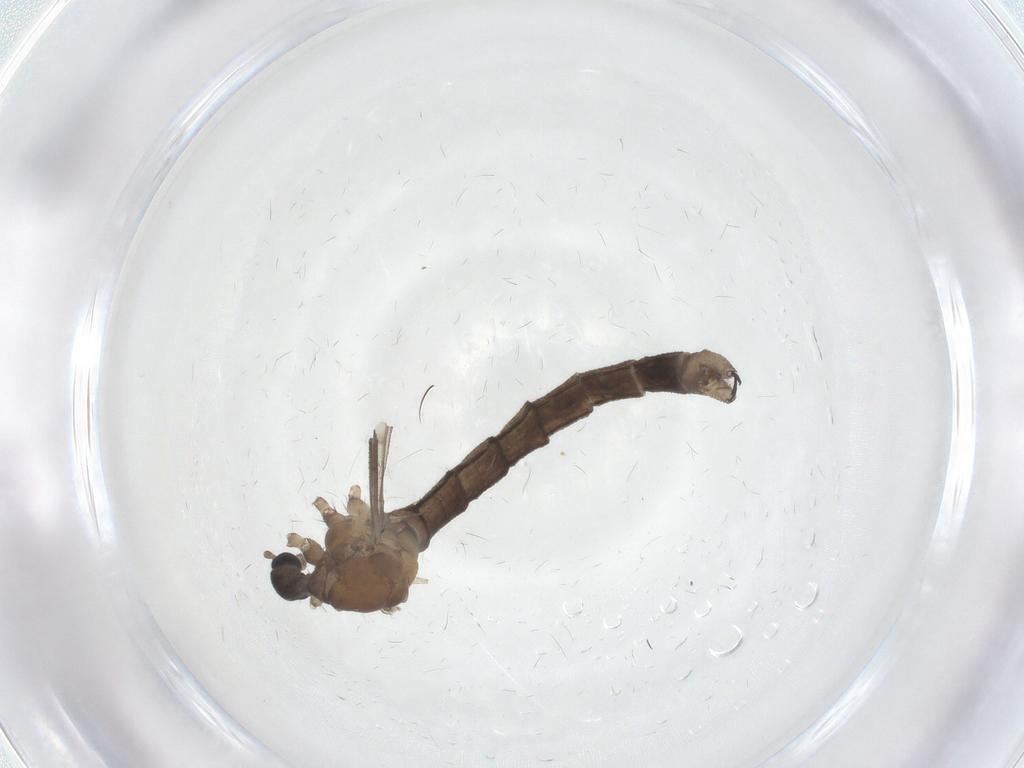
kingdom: Animalia
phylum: Arthropoda
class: Insecta
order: Diptera
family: Limoniidae
